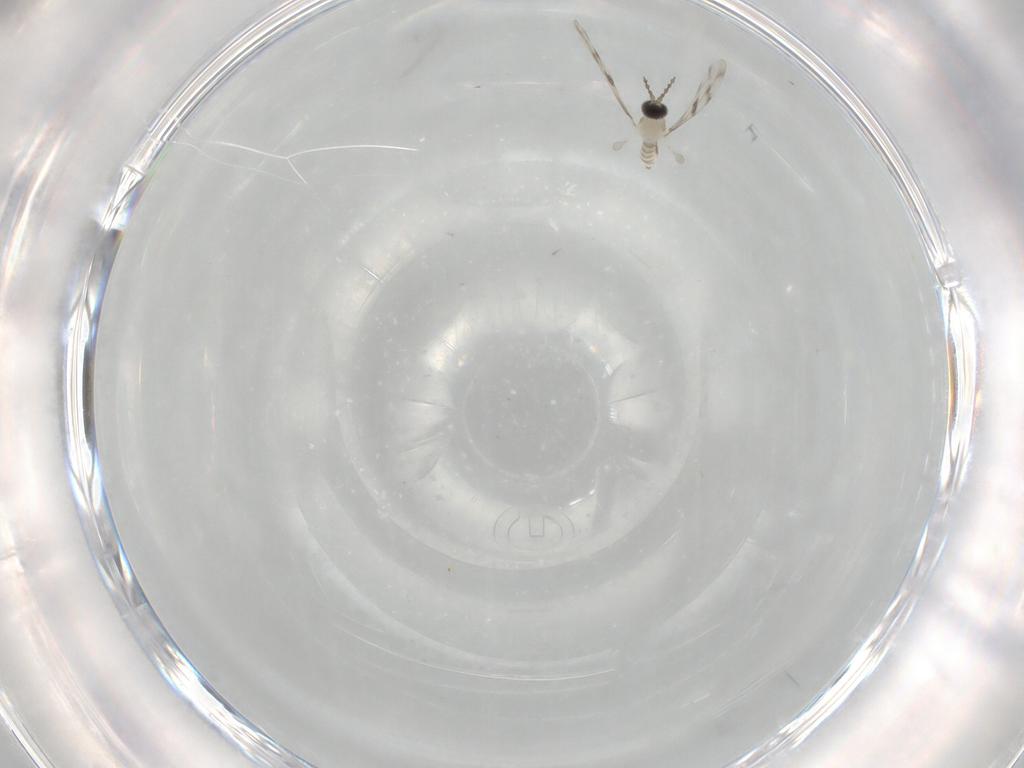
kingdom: Animalia
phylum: Arthropoda
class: Insecta
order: Diptera
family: Cecidomyiidae
